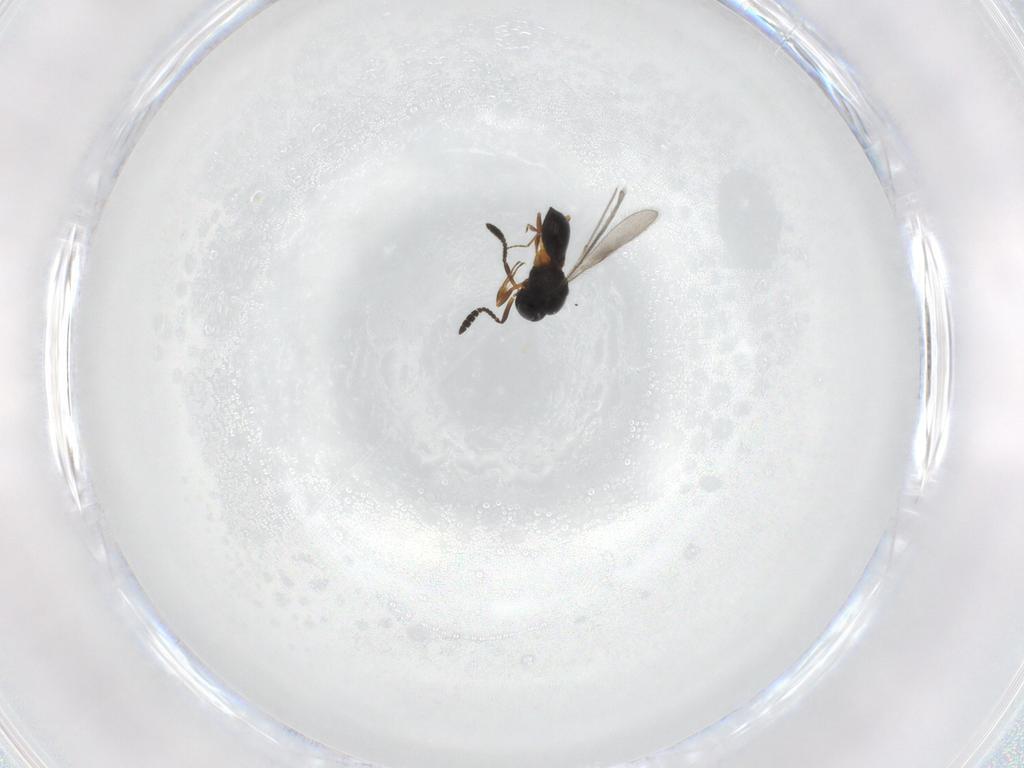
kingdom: Animalia
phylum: Arthropoda
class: Insecta
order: Hymenoptera
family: Scelionidae
